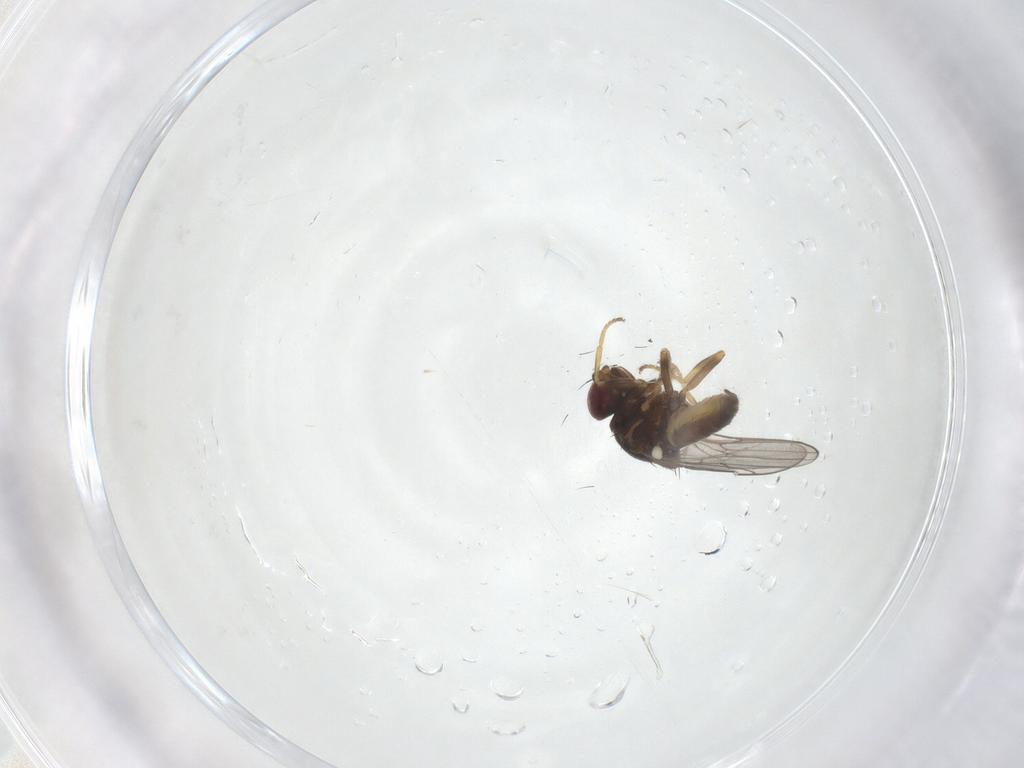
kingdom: Animalia
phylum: Arthropoda
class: Insecta
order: Diptera
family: Chloropidae
